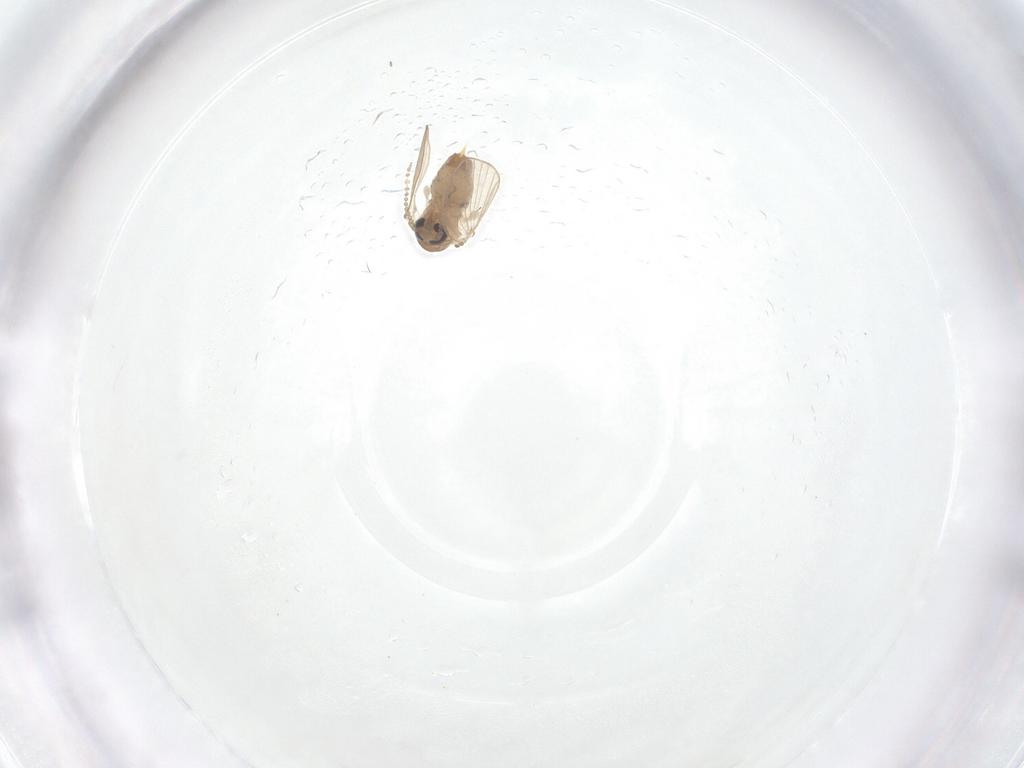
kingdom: Animalia
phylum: Arthropoda
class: Insecta
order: Diptera
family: Psychodidae
